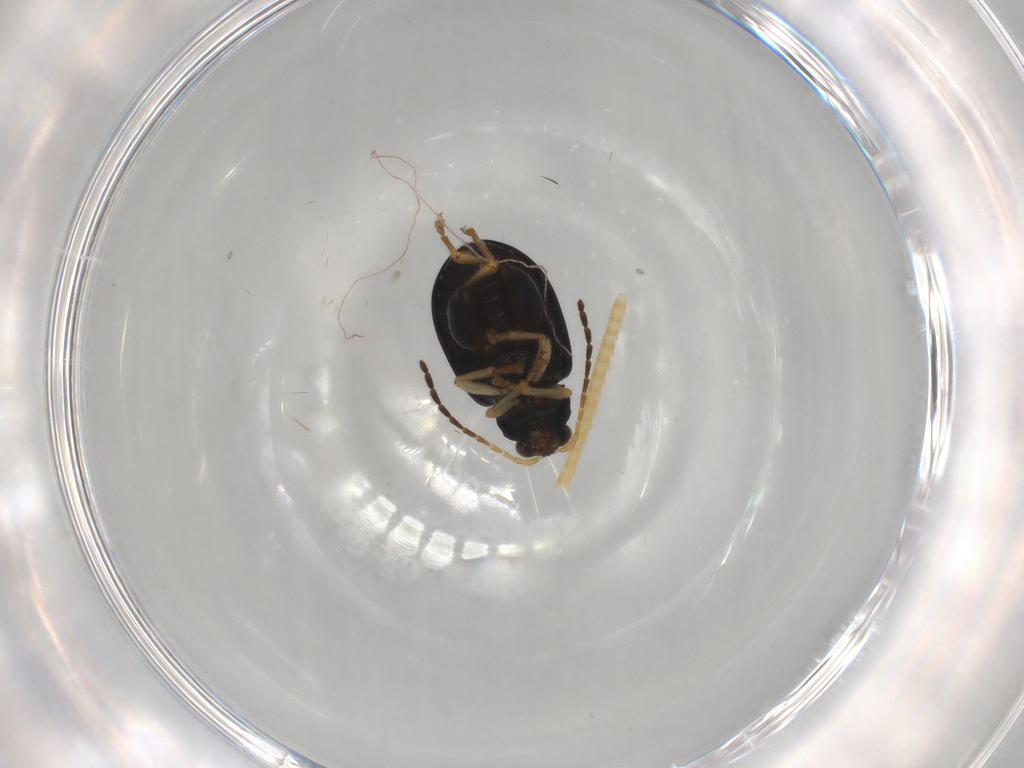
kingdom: Animalia
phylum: Arthropoda
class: Insecta
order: Coleoptera
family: Chrysomelidae
